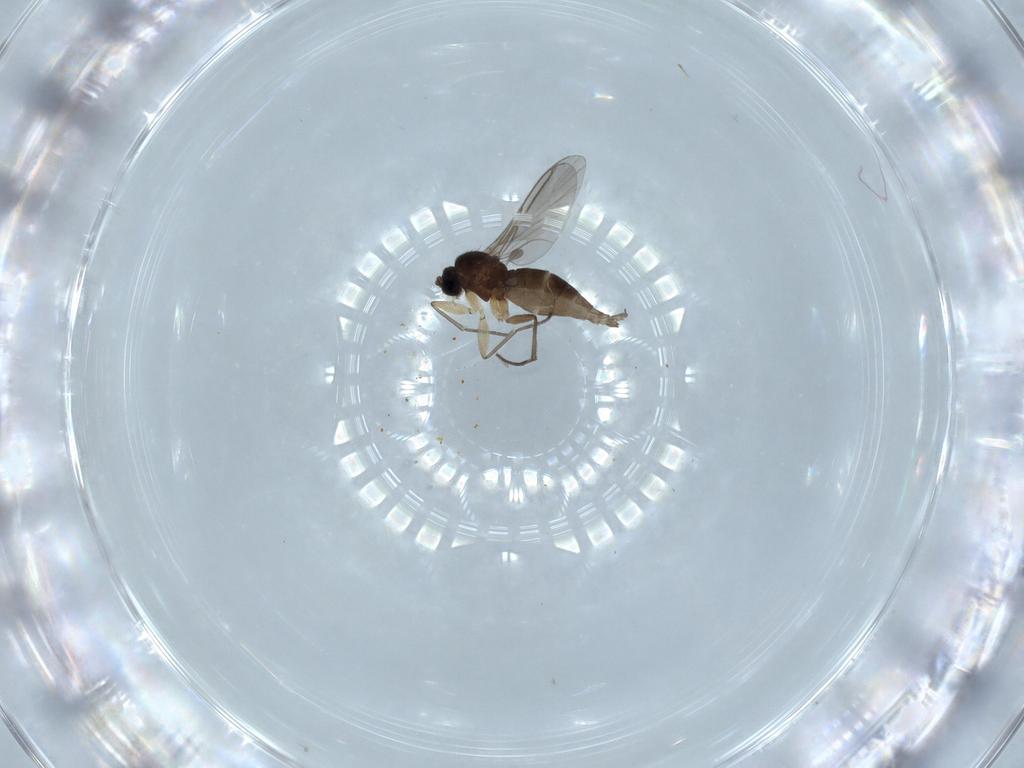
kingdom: Animalia
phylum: Arthropoda
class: Insecta
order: Diptera
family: Sciaridae
